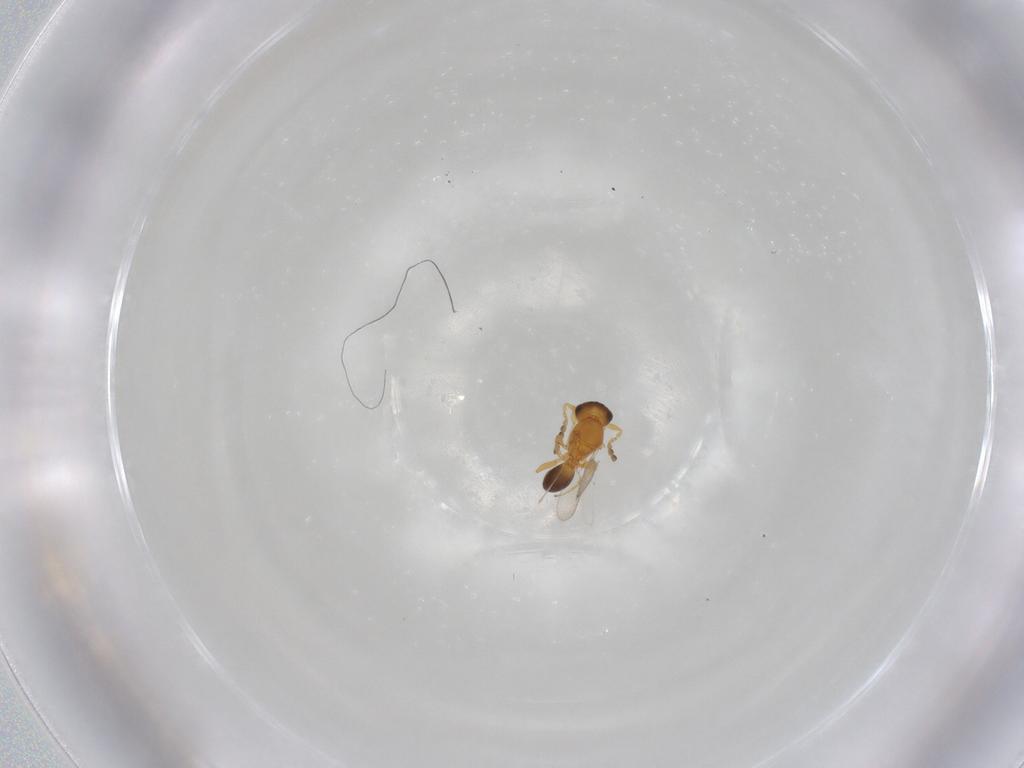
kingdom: Animalia
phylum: Arthropoda
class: Insecta
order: Hymenoptera
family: Platygastridae
